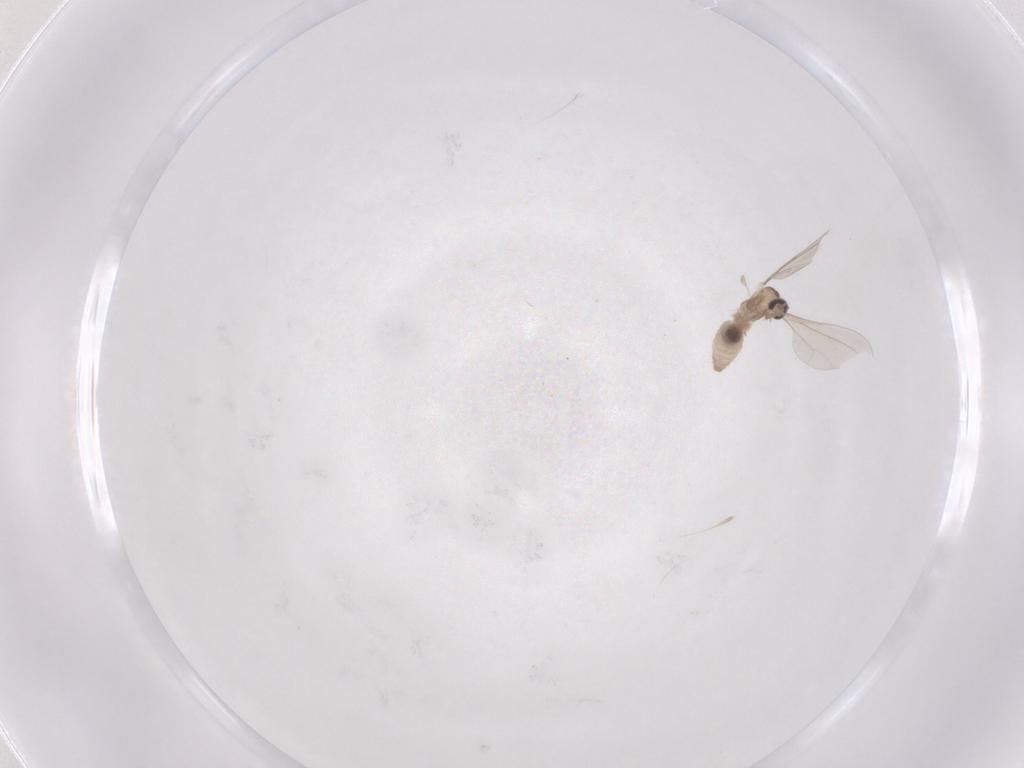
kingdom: Animalia
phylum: Arthropoda
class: Insecta
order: Diptera
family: Cecidomyiidae
